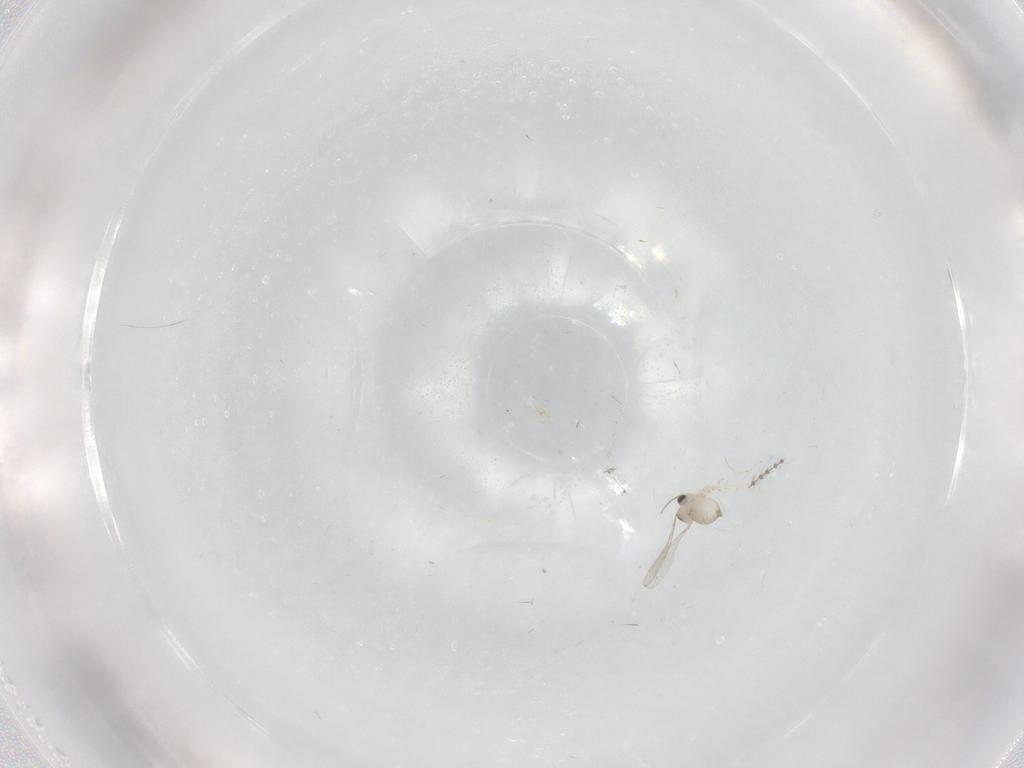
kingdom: Animalia
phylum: Arthropoda
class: Insecta
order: Diptera
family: Cecidomyiidae
